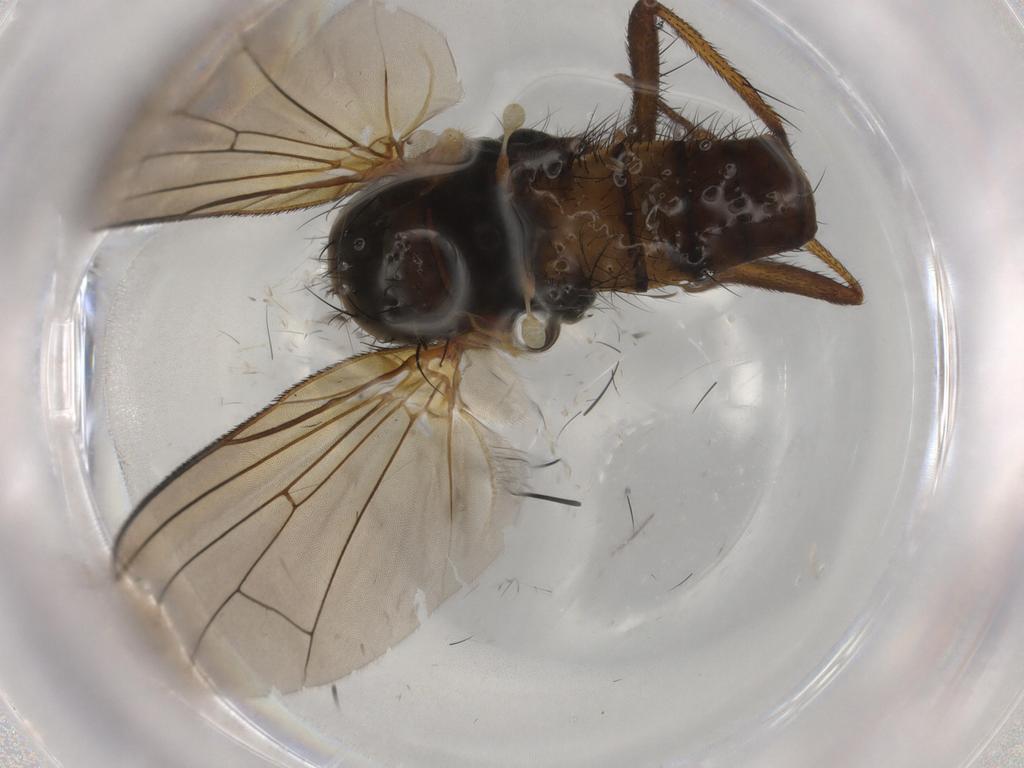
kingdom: Animalia
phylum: Arthropoda
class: Insecta
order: Diptera
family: Anthomyiidae
